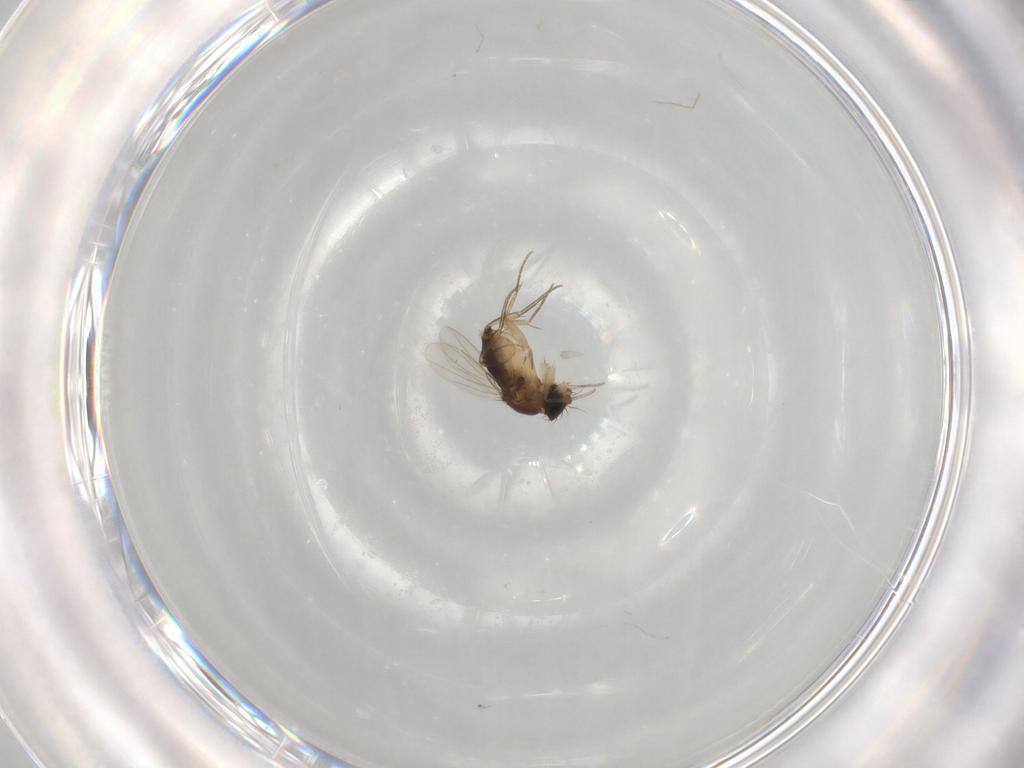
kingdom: Animalia
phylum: Arthropoda
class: Insecta
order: Diptera
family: Phoridae
